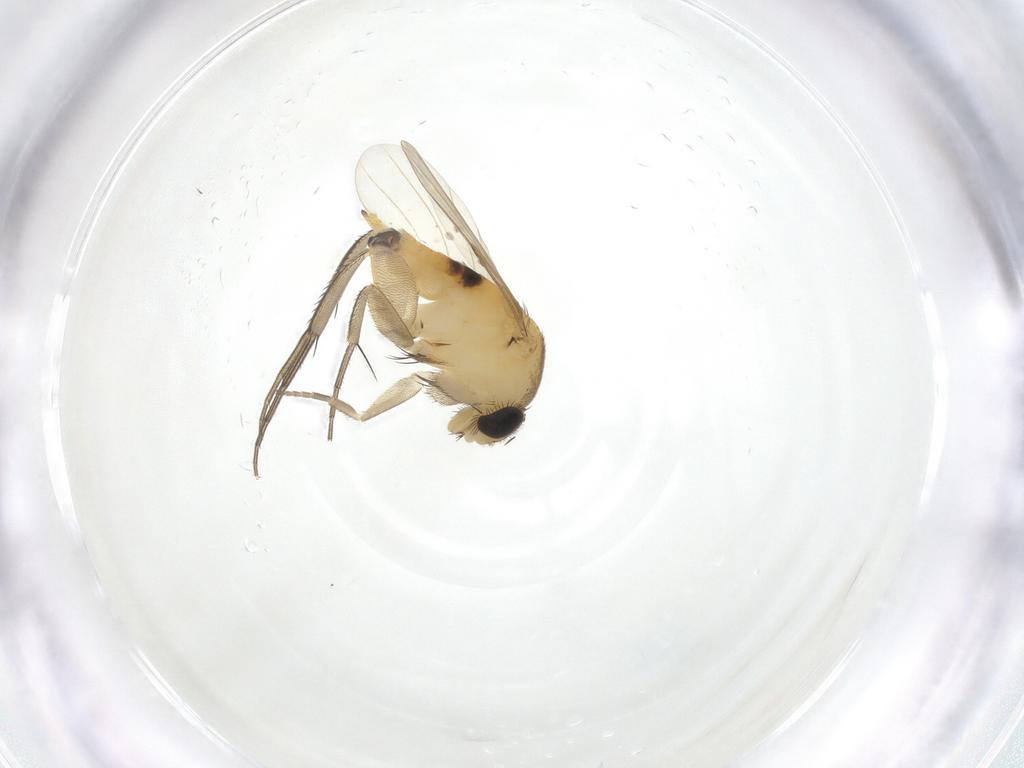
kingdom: Animalia
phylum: Arthropoda
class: Insecta
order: Diptera
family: Phoridae
